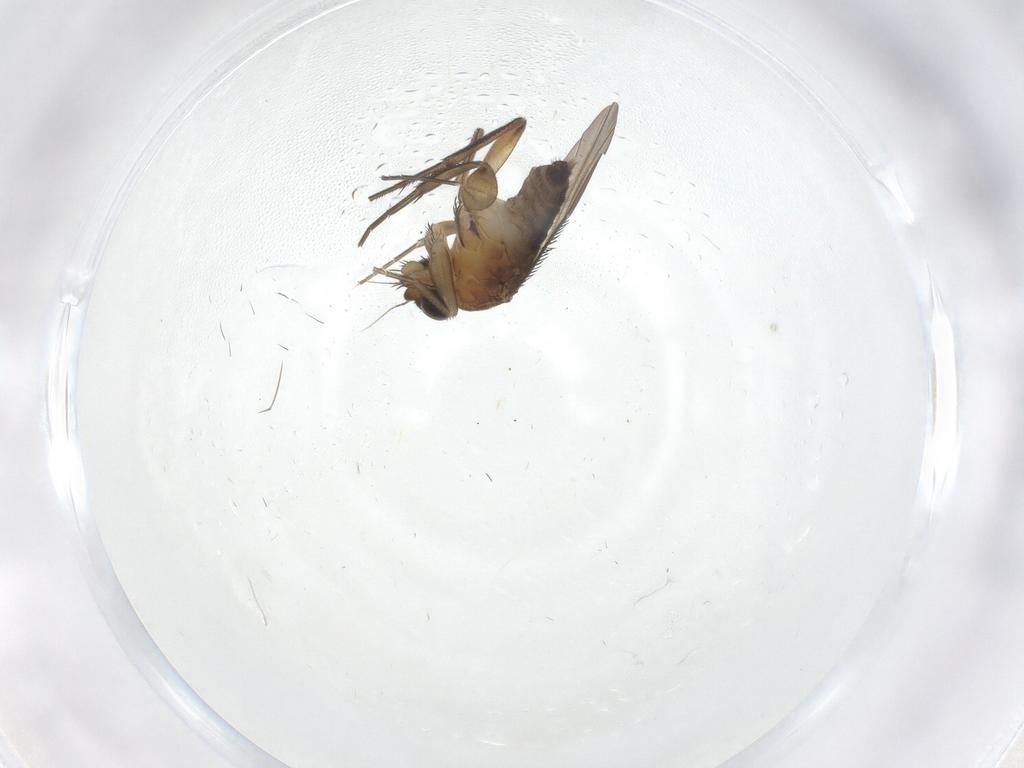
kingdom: Animalia
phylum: Arthropoda
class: Insecta
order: Diptera
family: Phoridae
